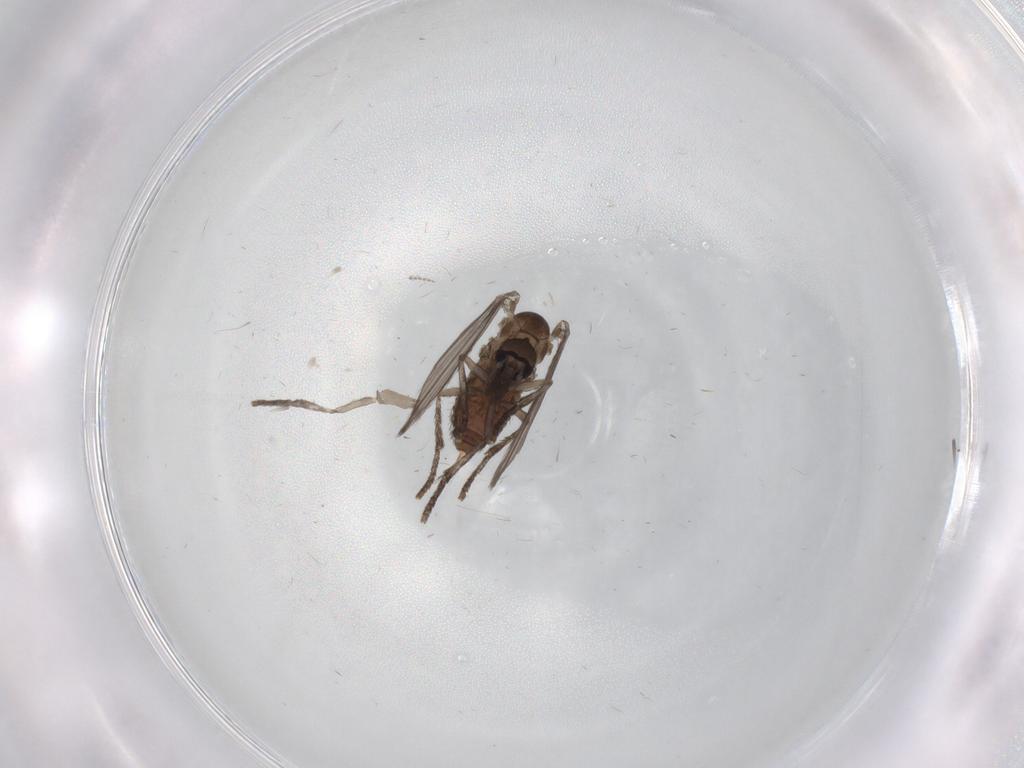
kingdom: Animalia
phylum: Arthropoda
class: Insecta
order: Diptera
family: Psychodidae
